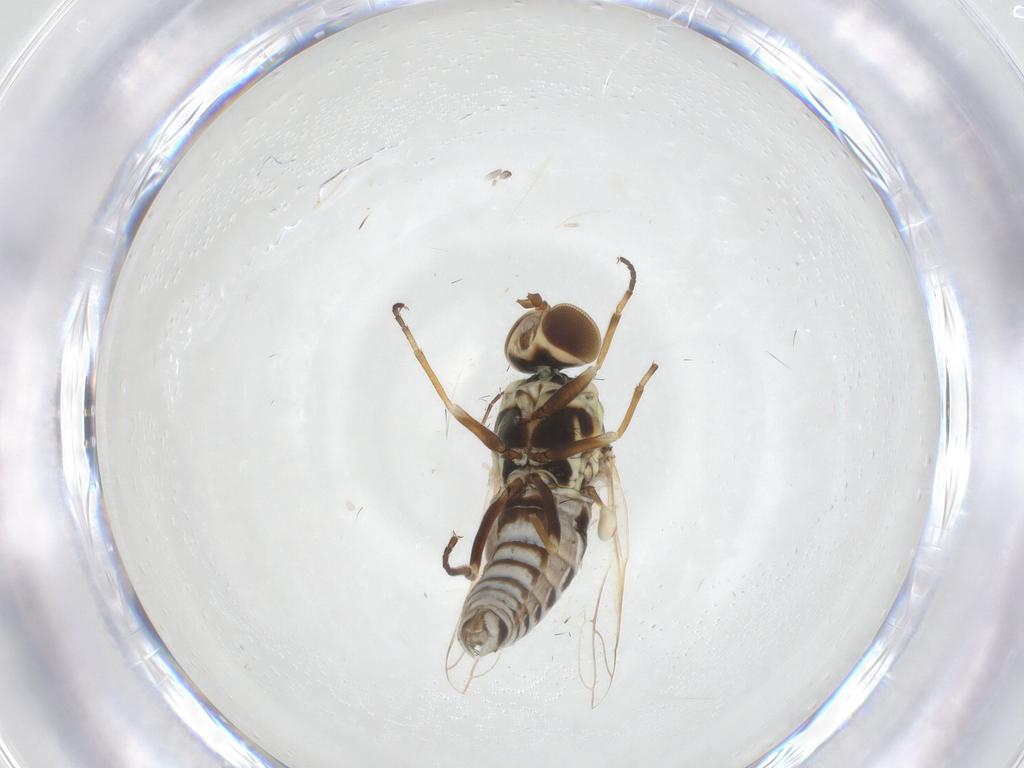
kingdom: Animalia
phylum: Arthropoda
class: Insecta
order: Diptera
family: Scenopinidae
